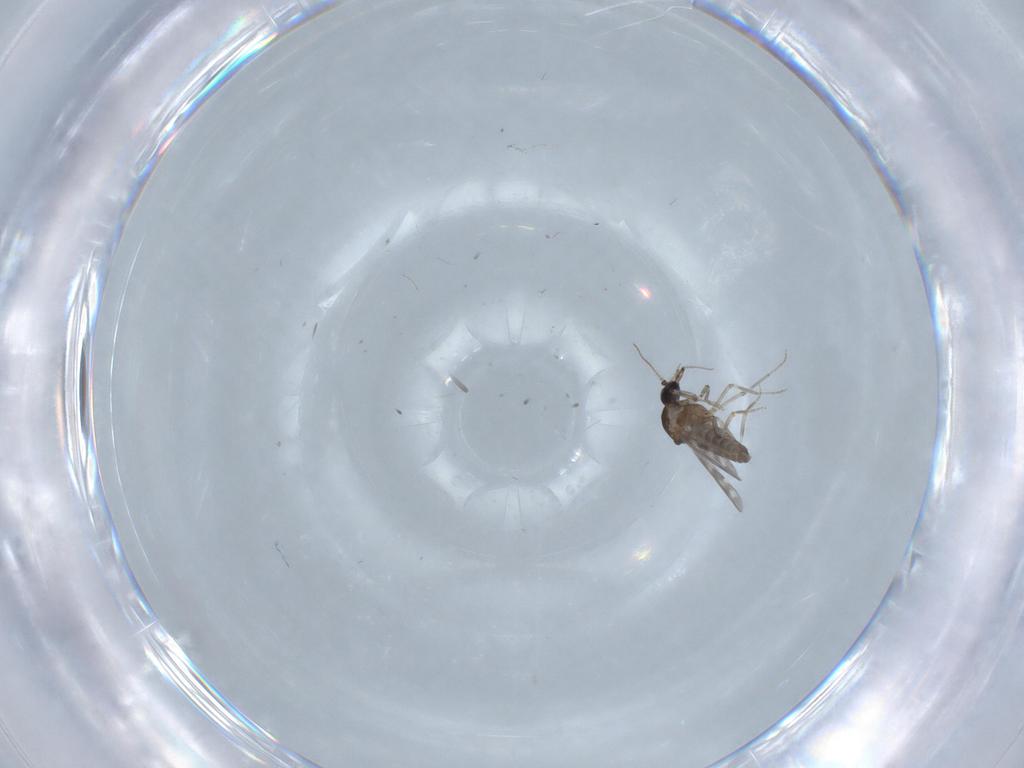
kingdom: Animalia
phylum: Arthropoda
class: Insecta
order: Diptera
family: Ceratopogonidae
